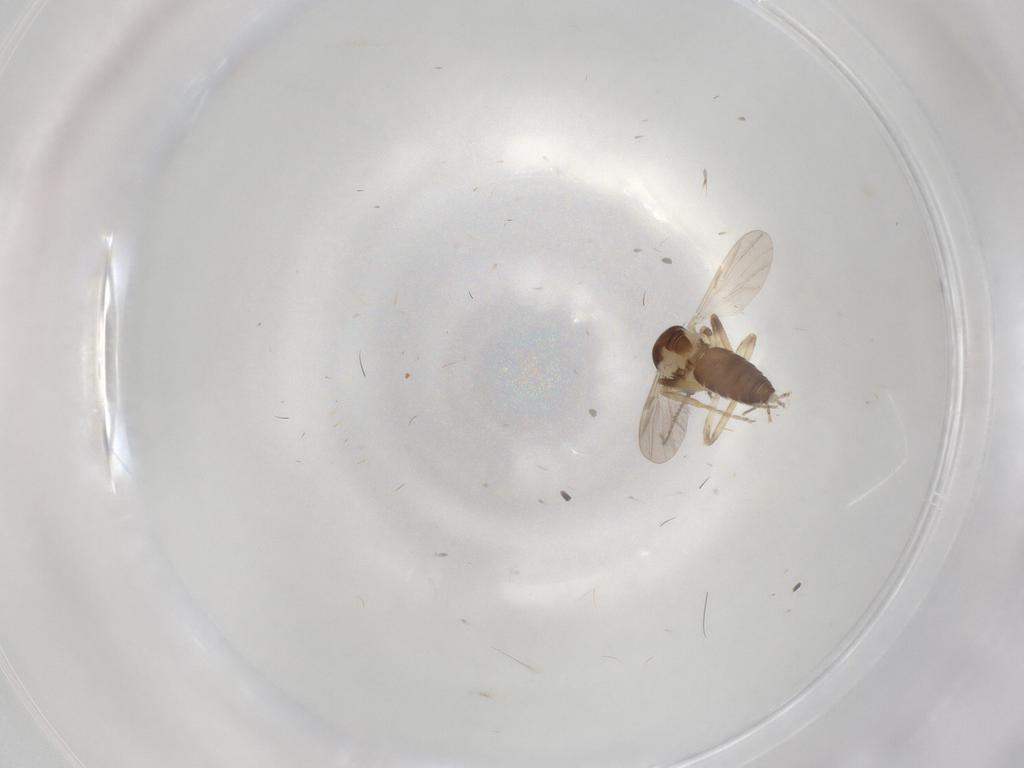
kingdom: Animalia
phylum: Arthropoda
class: Insecta
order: Diptera
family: Ceratopogonidae
